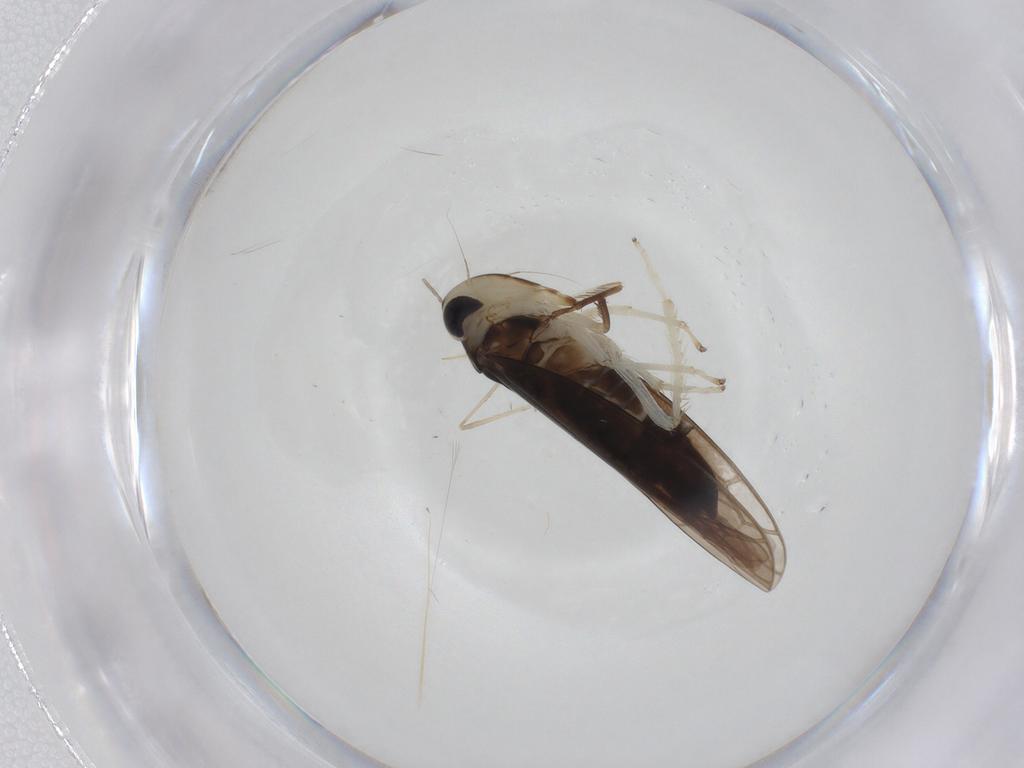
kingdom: Animalia
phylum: Arthropoda
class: Insecta
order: Hemiptera
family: Cicadellidae
